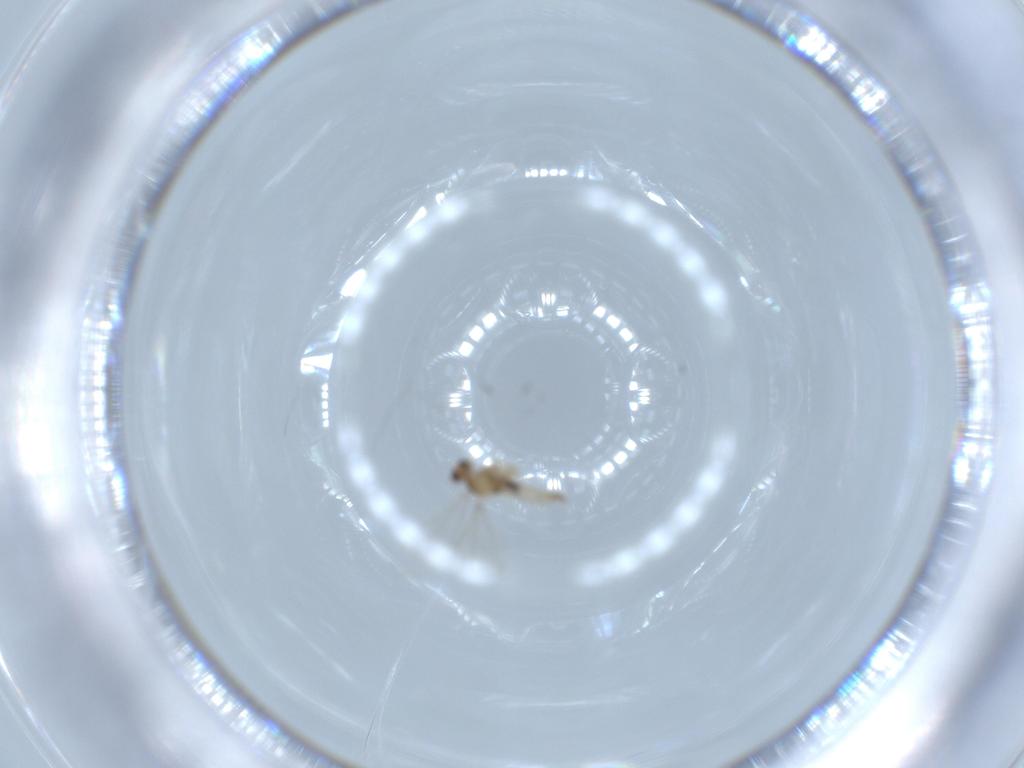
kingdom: Animalia
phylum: Arthropoda
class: Insecta
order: Diptera
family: Cecidomyiidae
